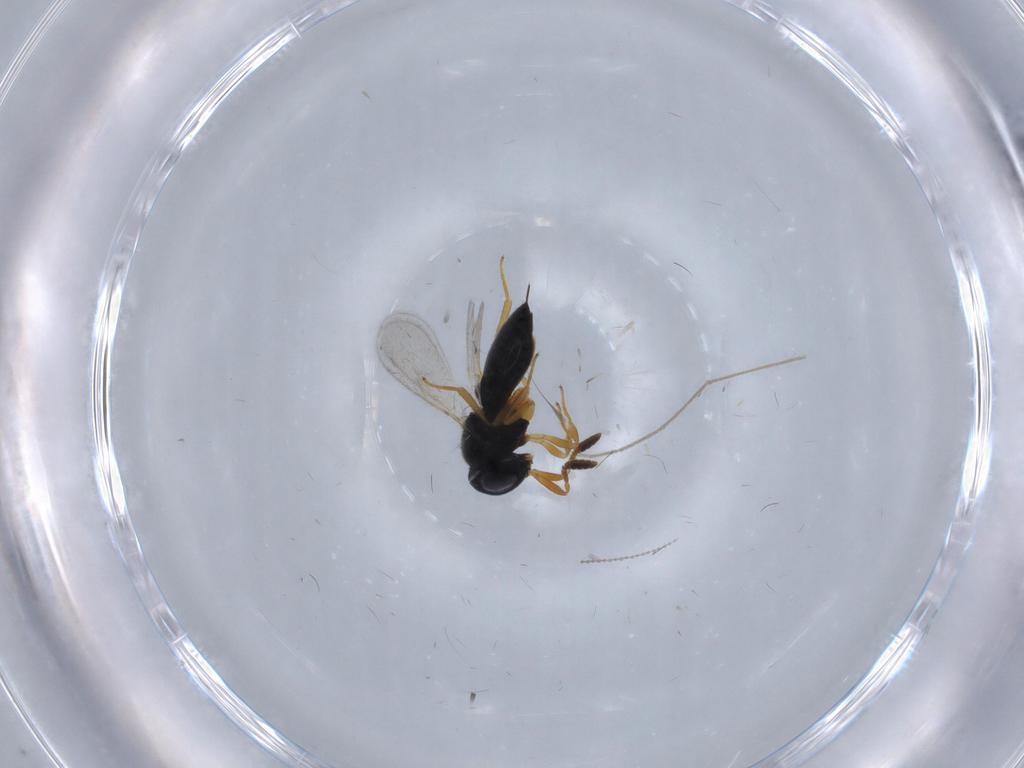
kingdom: Animalia
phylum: Arthropoda
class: Insecta
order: Hymenoptera
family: Scelionidae
